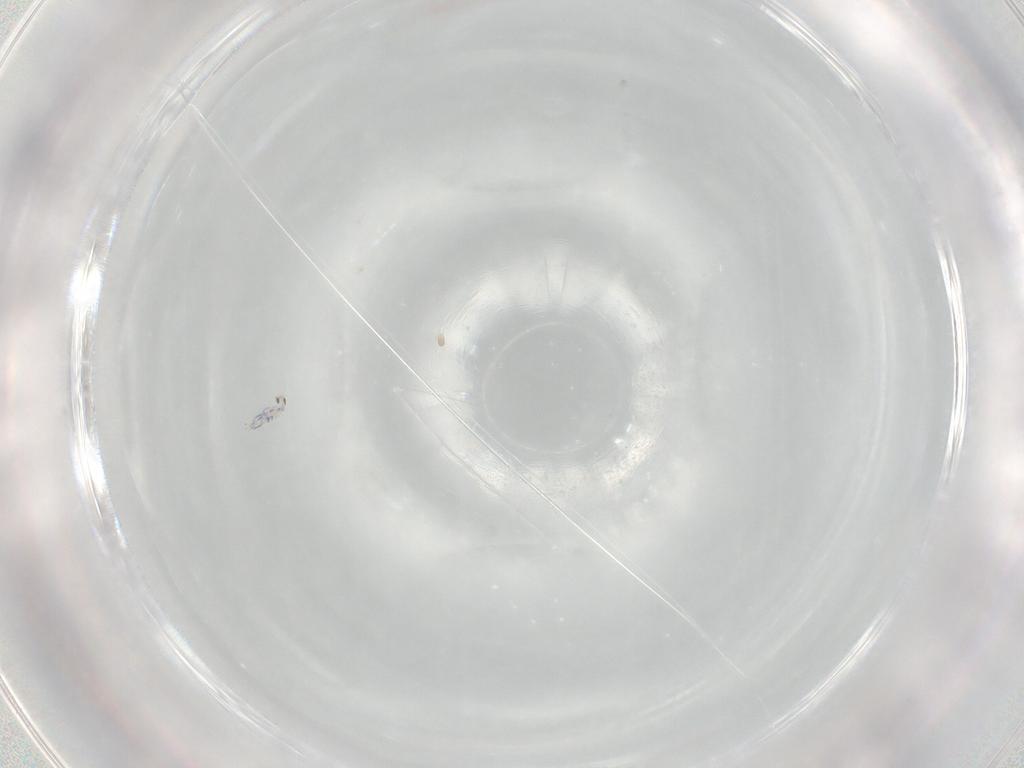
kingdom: Animalia
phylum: Arthropoda
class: Collembola
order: Entomobryomorpha
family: Entomobryidae
